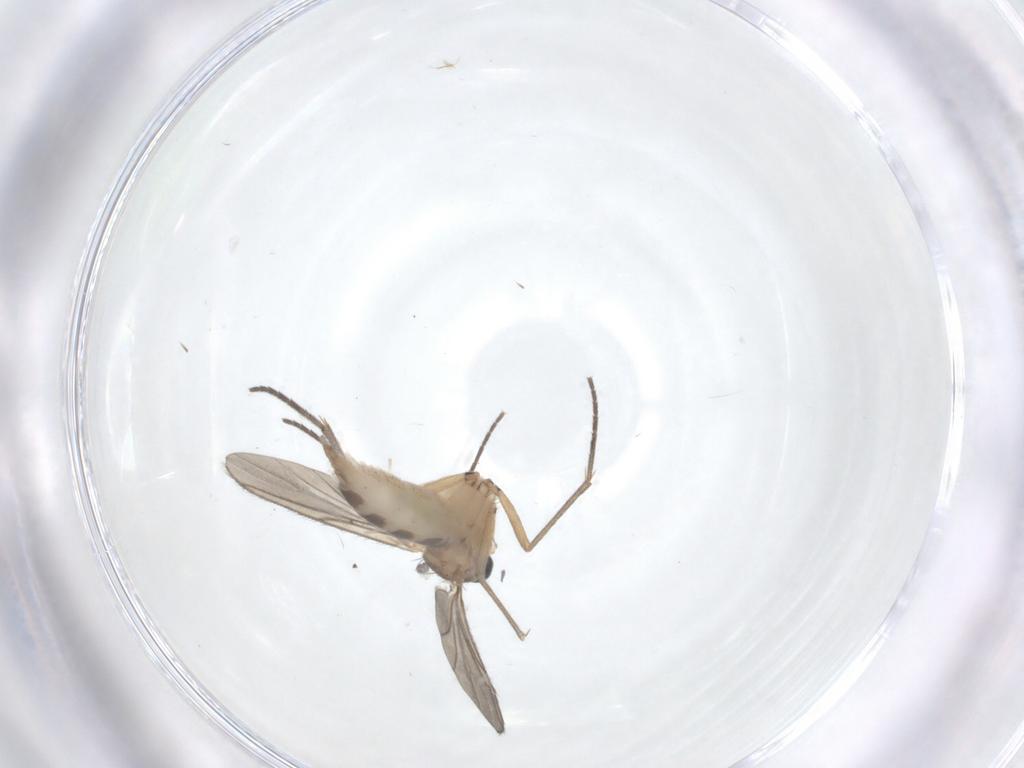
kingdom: Animalia
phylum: Arthropoda
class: Insecta
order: Diptera
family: Sciaridae
